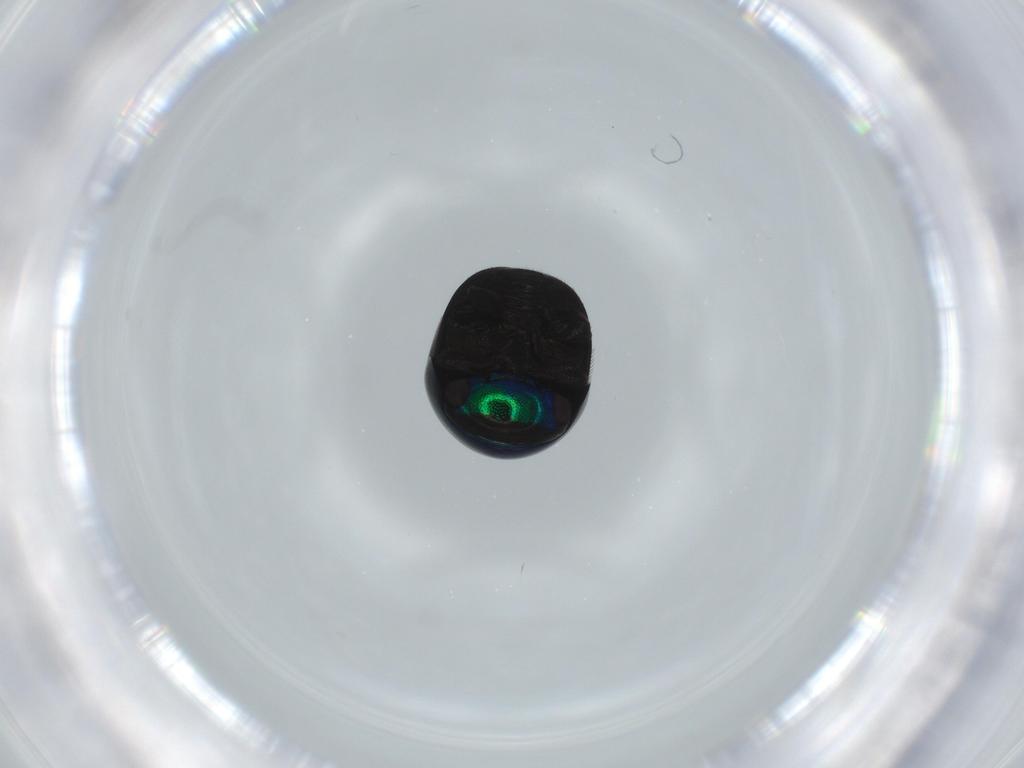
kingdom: Animalia
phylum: Arthropoda
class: Insecta
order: Coleoptera
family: Cybocephalidae
